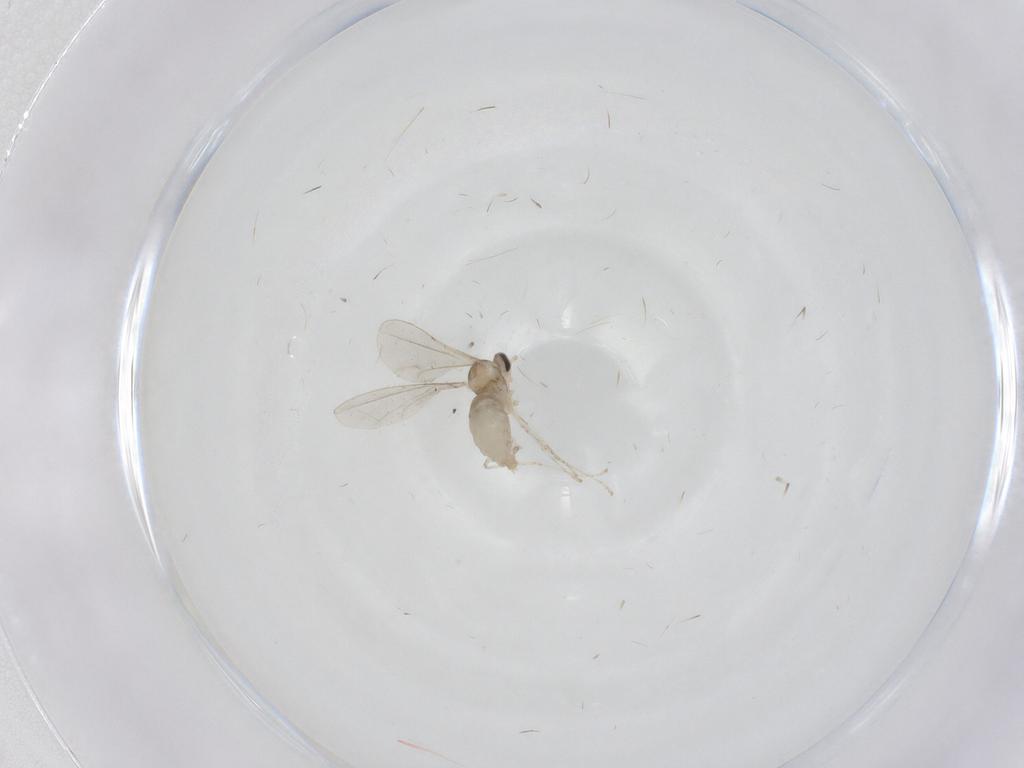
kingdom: Animalia
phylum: Arthropoda
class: Insecta
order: Diptera
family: Cecidomyiidae
